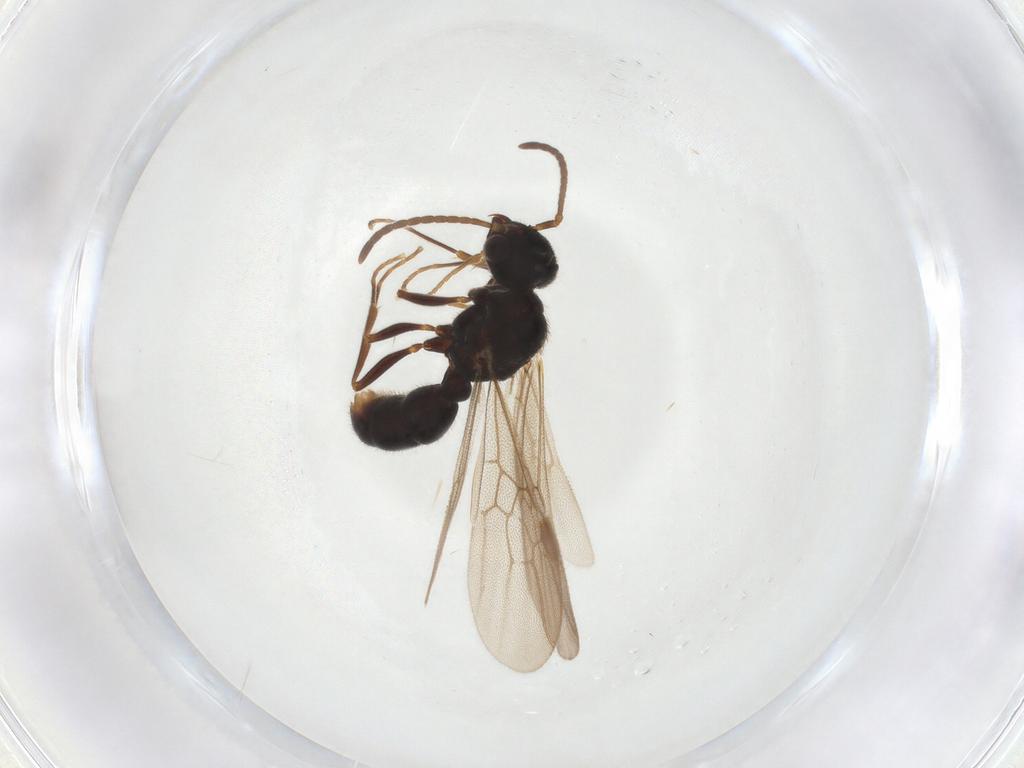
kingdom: Animalia
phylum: Arthropoda
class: Insecta
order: Hymenoptera
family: Formicidae
